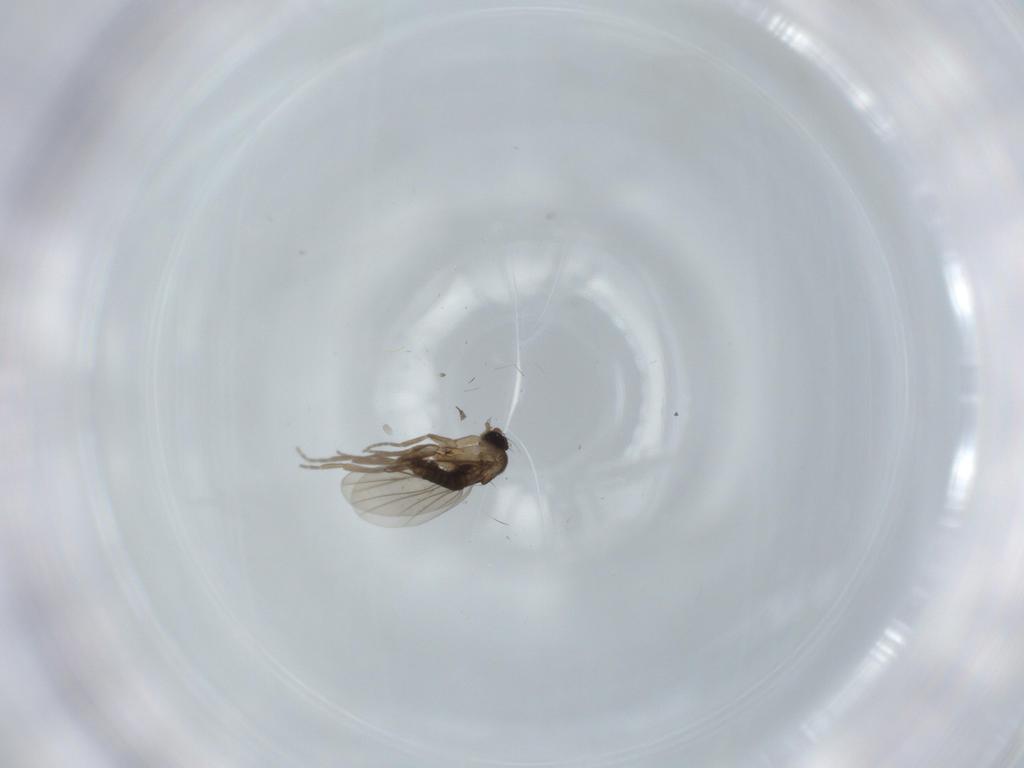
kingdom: Animalia
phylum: Arthropoda
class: Insecta
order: Diptera
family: Phoridae
